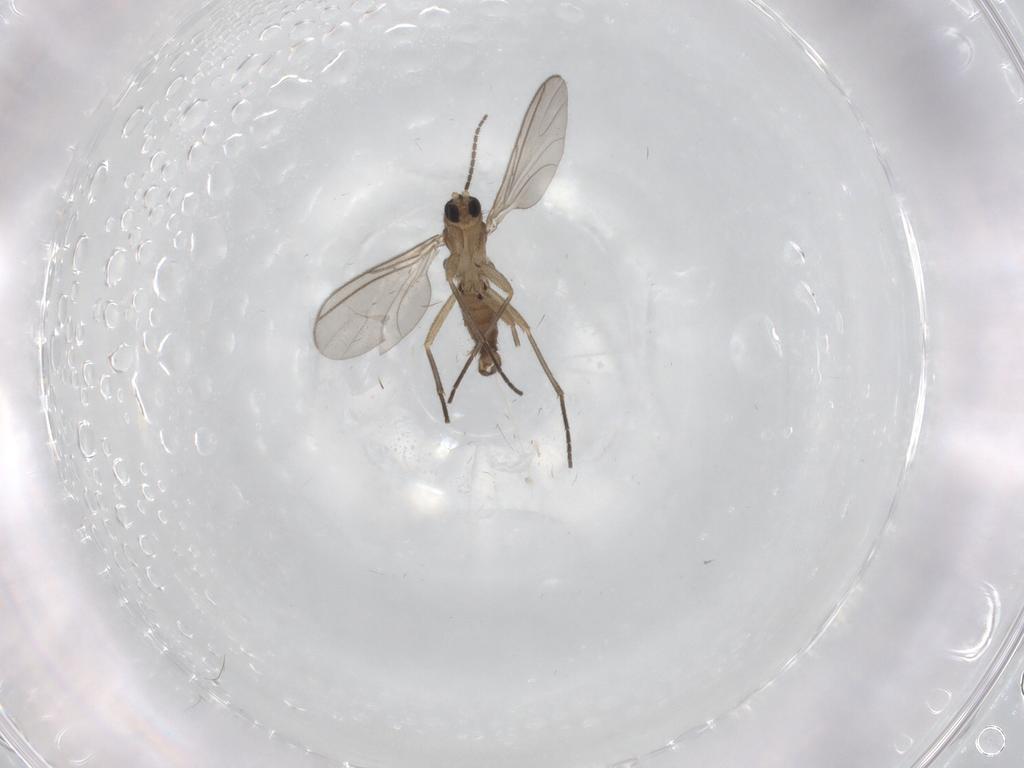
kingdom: Animalia
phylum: Arthropoda
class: Insecta
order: Diptera
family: Sciaridae
